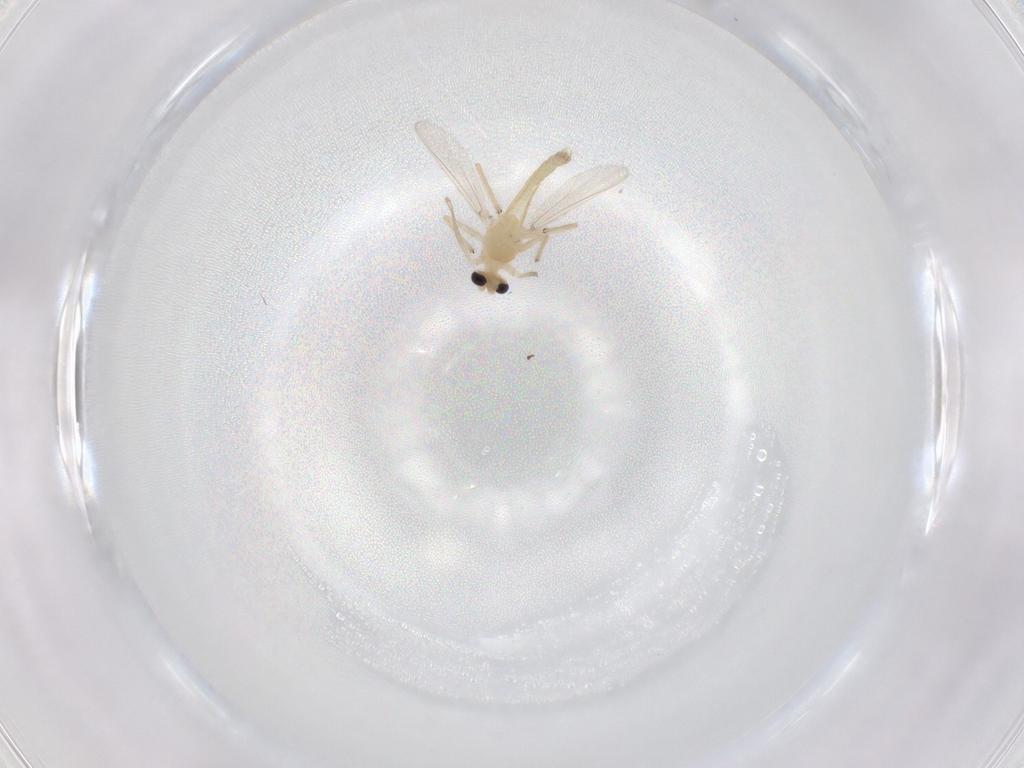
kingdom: Animalia
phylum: Arthropoda
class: Insecta
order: Diptera
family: Chironomidae
